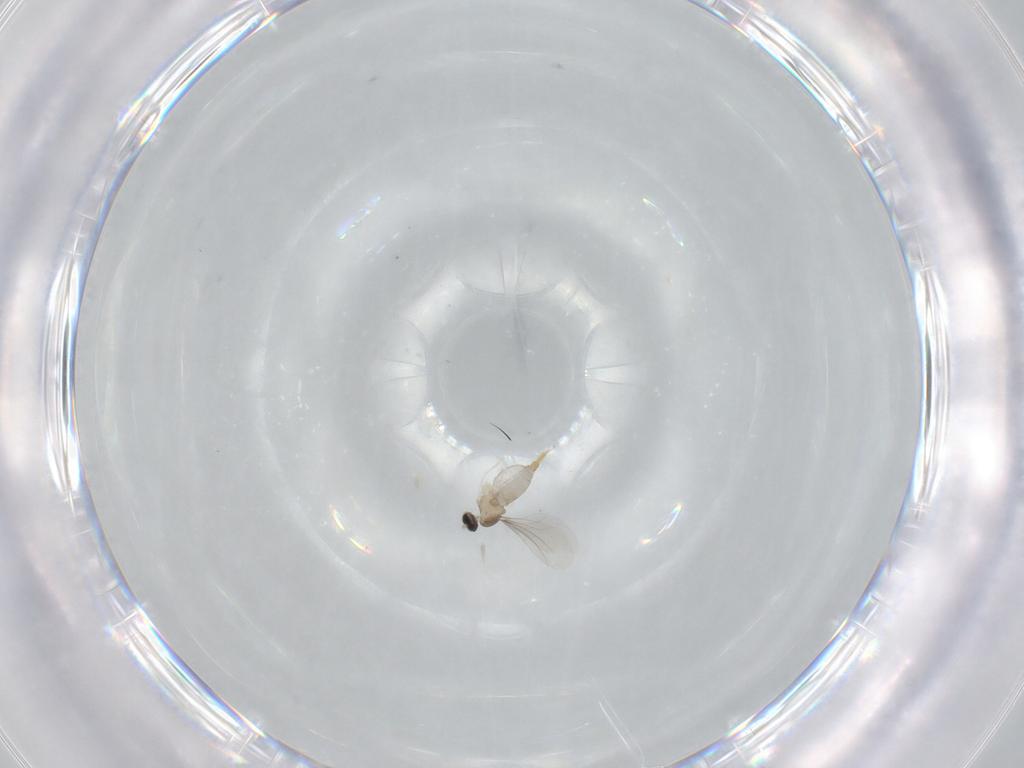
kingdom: Animalia
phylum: Arthropoda
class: Insecta
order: Diptera
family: Cecidomyiidae
